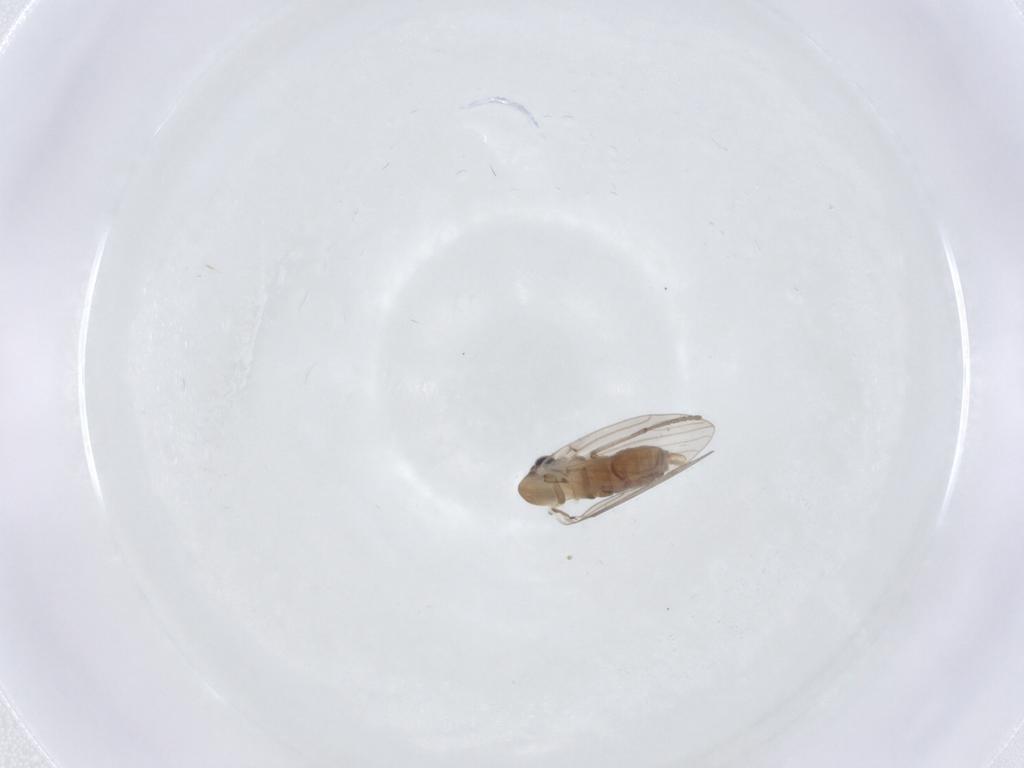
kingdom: Animalia
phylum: Arthropoda
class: Insecta
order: Diptera
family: Psychodidae
